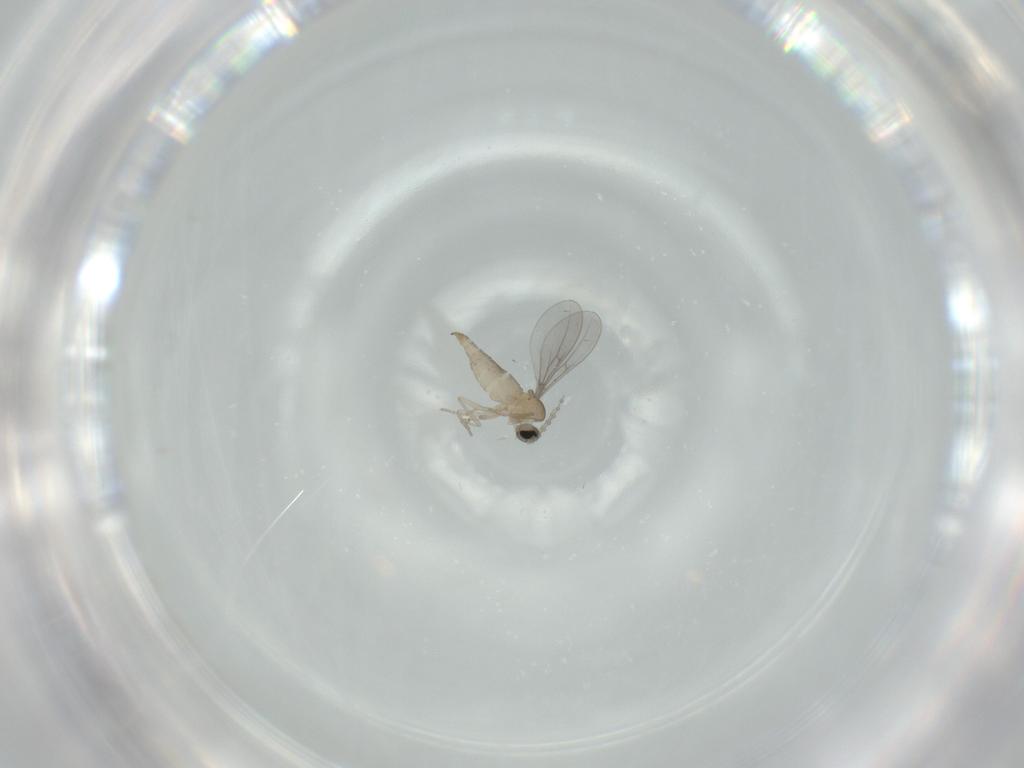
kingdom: Animalia
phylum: Arthropoda
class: Insecta
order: Diptera
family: Cecidomyiidae
